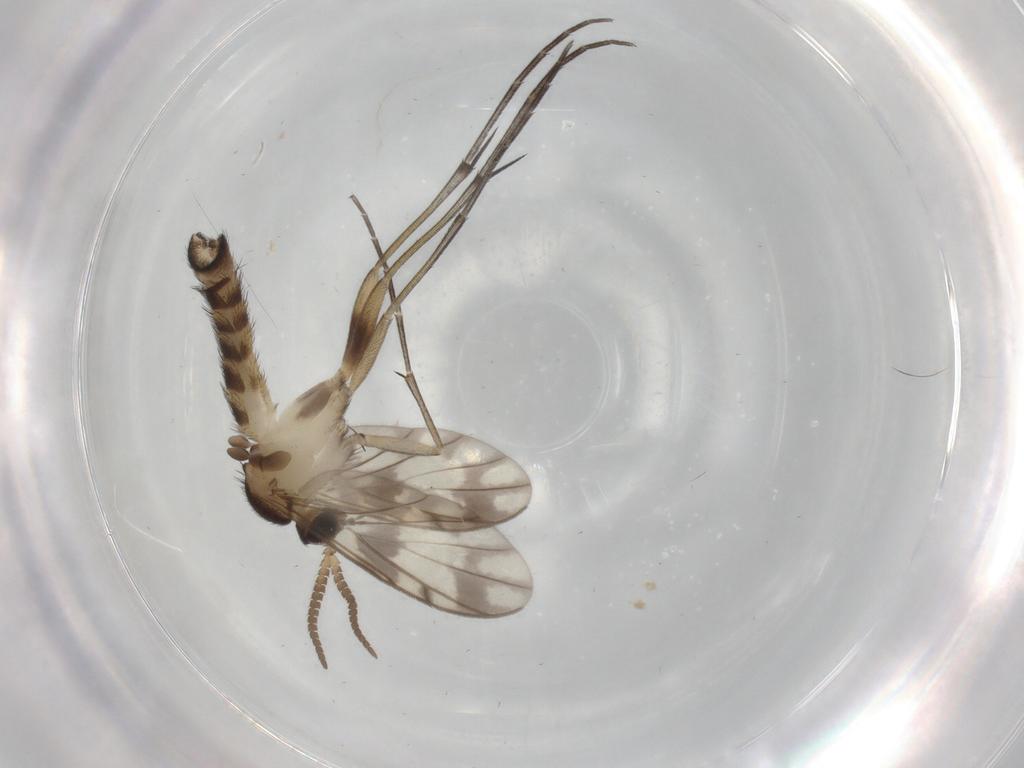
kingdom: Animalia
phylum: Arthropoda
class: Insecta
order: Diptera
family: Keroplatidae
